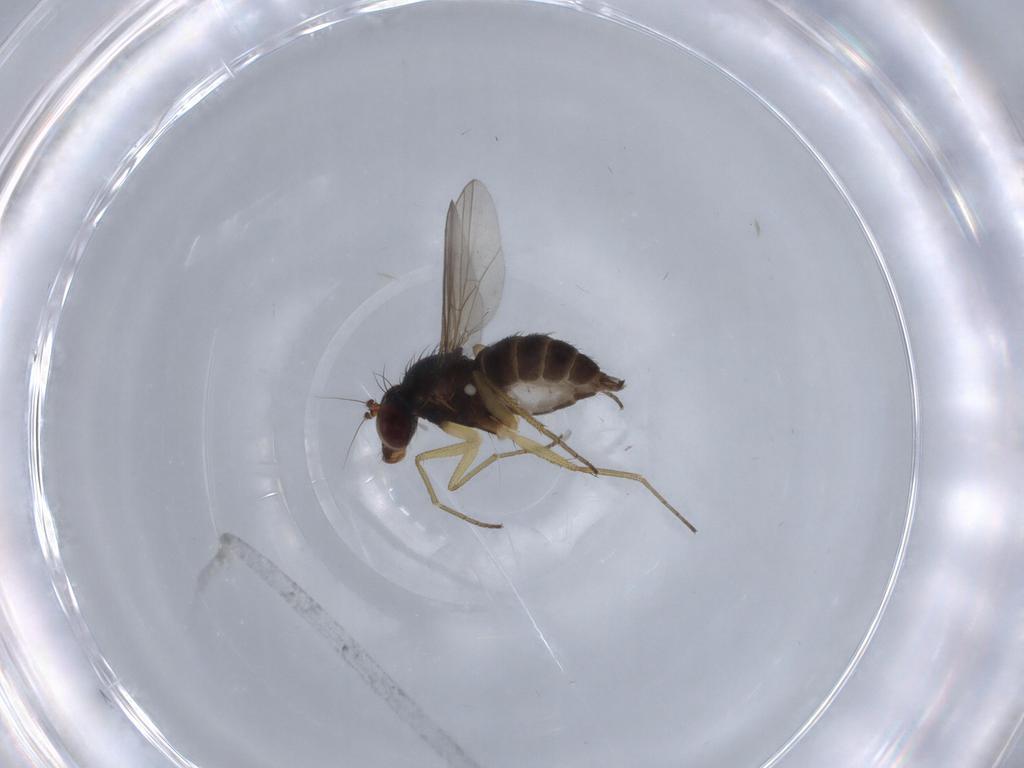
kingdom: Animalia
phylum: Arthropoda
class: Insecta
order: Diptera
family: Dolichopodidae
